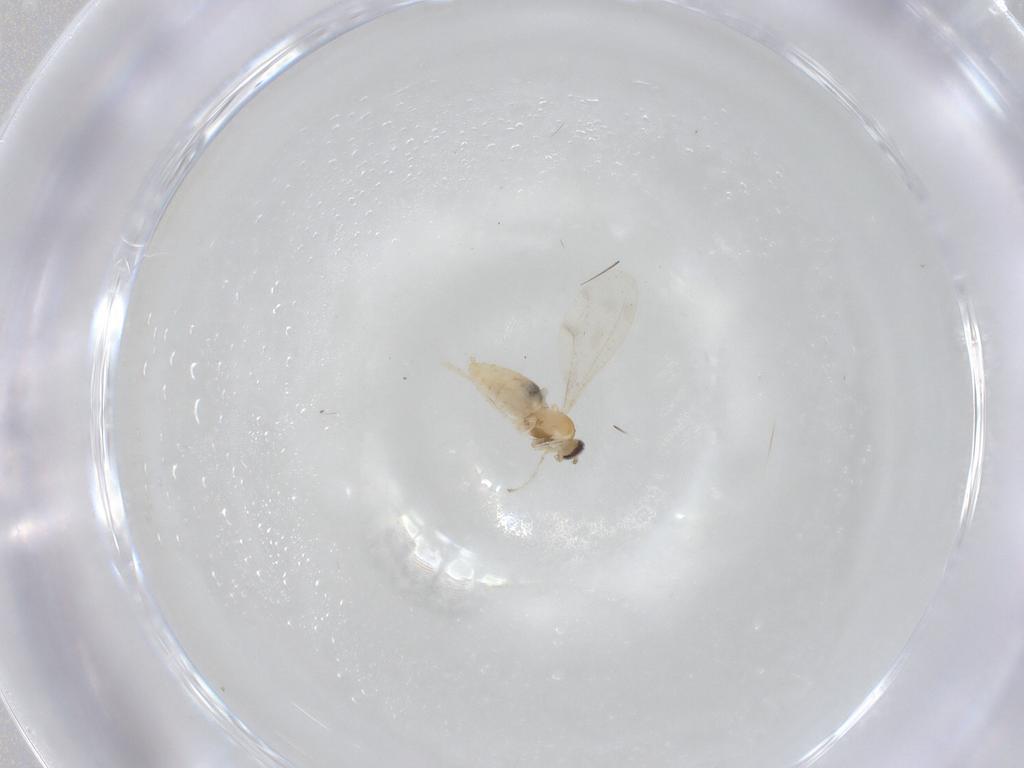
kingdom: Animalia
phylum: Arthropoda
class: Insecta
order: Diptera
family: Cecidomyiidae
